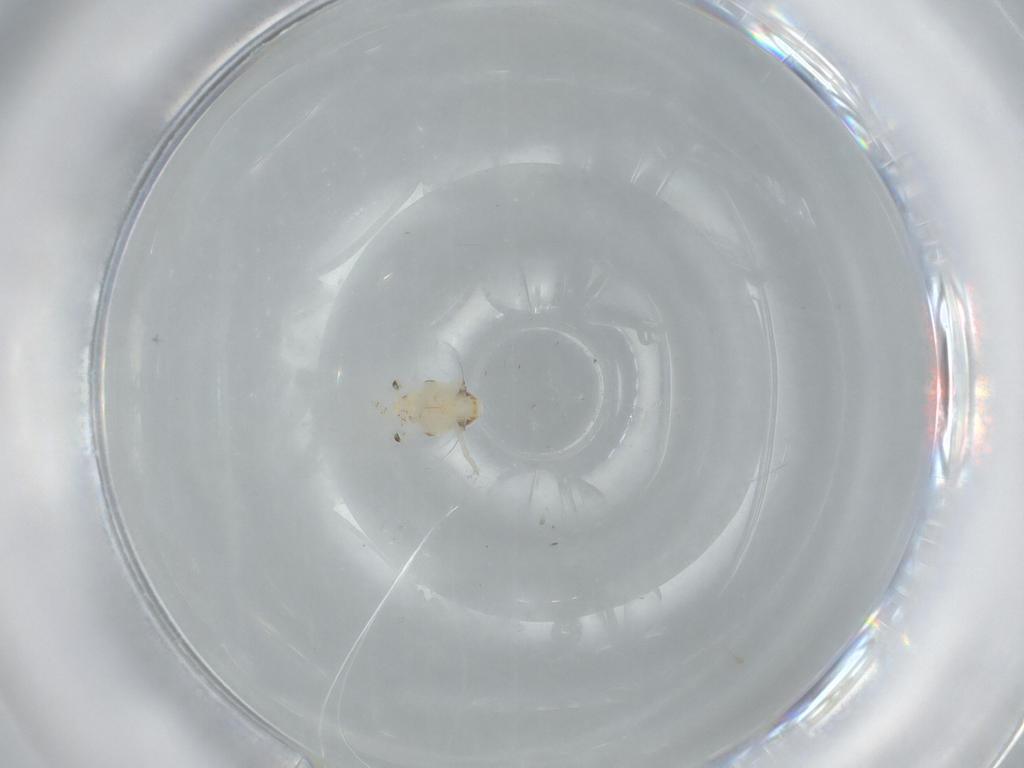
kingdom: Animalia
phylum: Arthropoda
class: Insecta
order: Hemiptera
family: Nogodinidae
